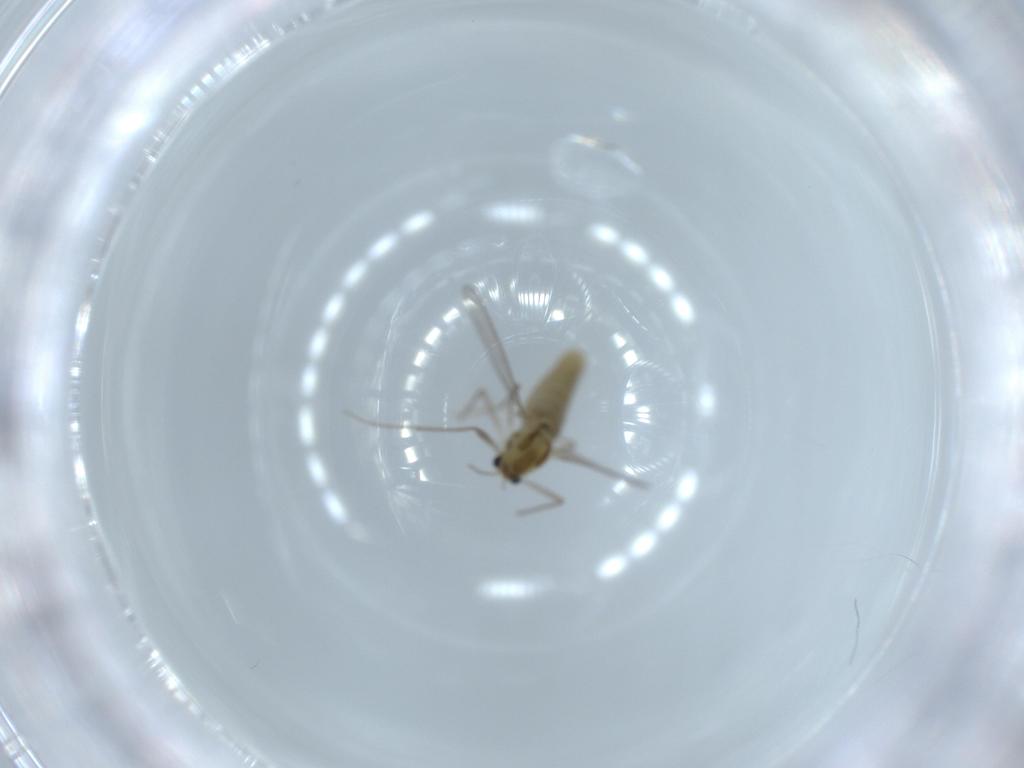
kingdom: Animalia
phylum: Arthropoda
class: Insecta
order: Diptera
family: Chironomidae
